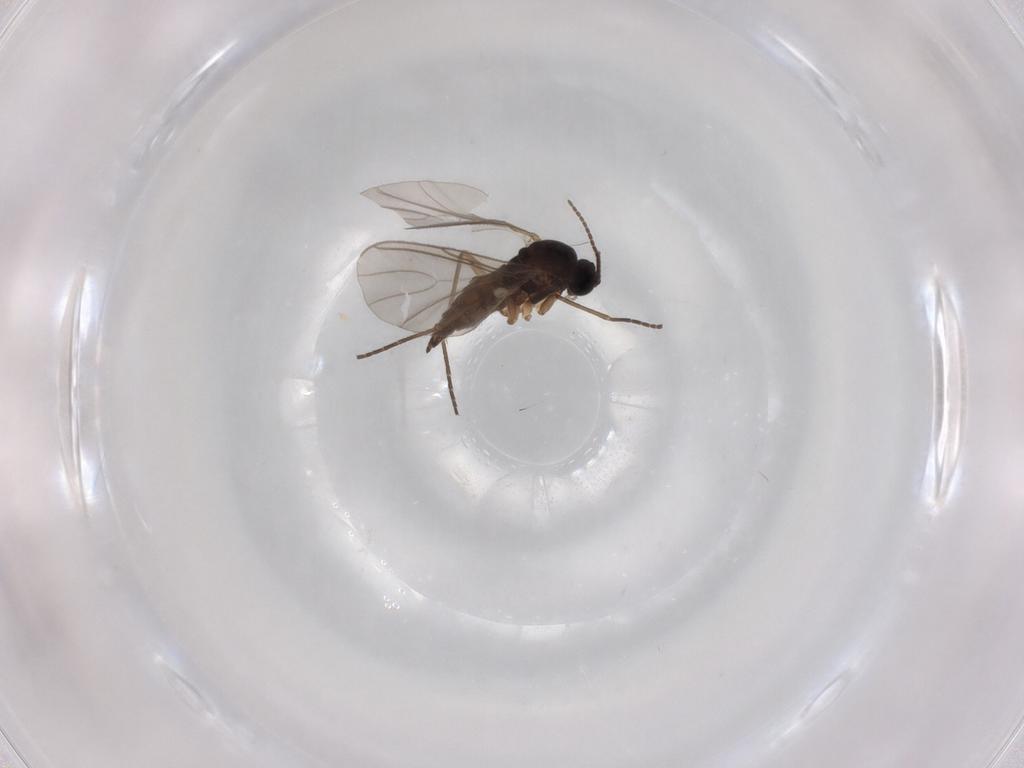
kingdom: Animalia
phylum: Arthropoda
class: Insecta
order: Diptera
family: Sciaridae
